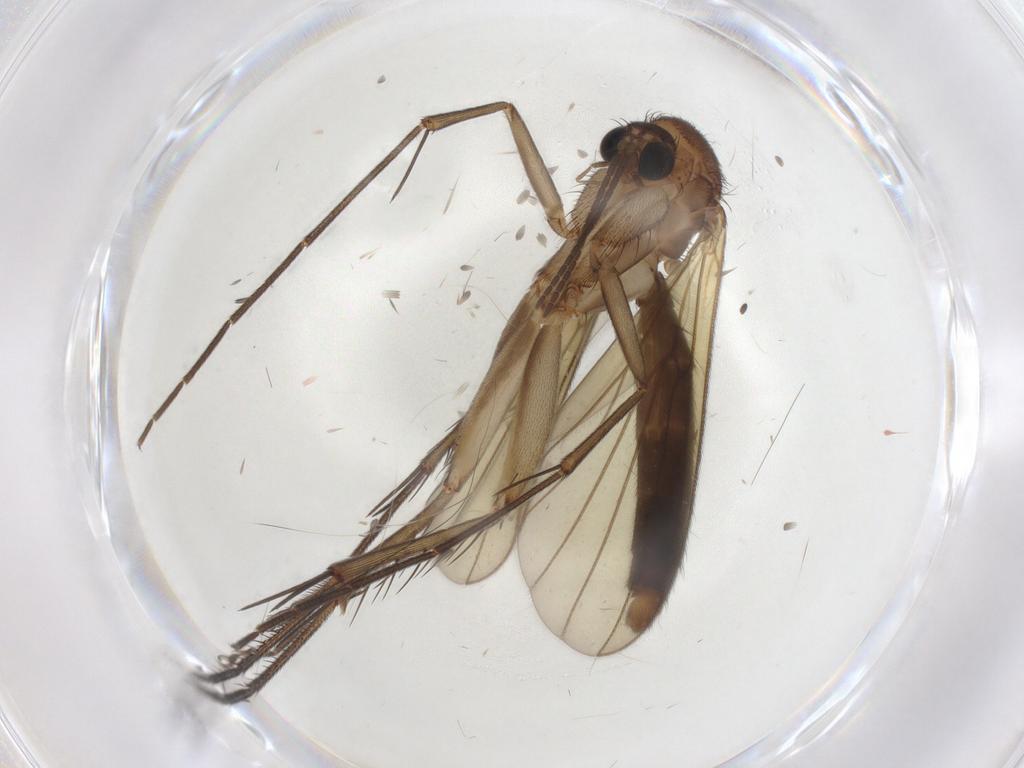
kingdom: Animalia
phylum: Arthropoda
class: Insecta
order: Diptera
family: Mycetophilidae
